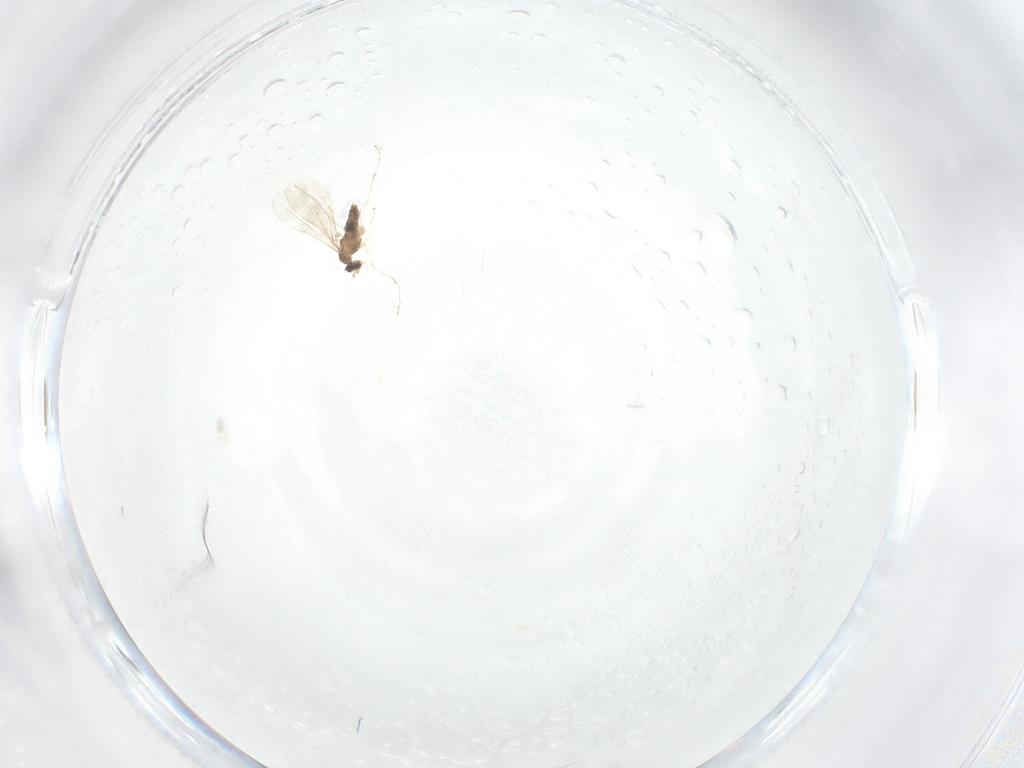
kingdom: Animalia
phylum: Arthropoda
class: Insecta
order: Diptera
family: Cecidomyiidae
